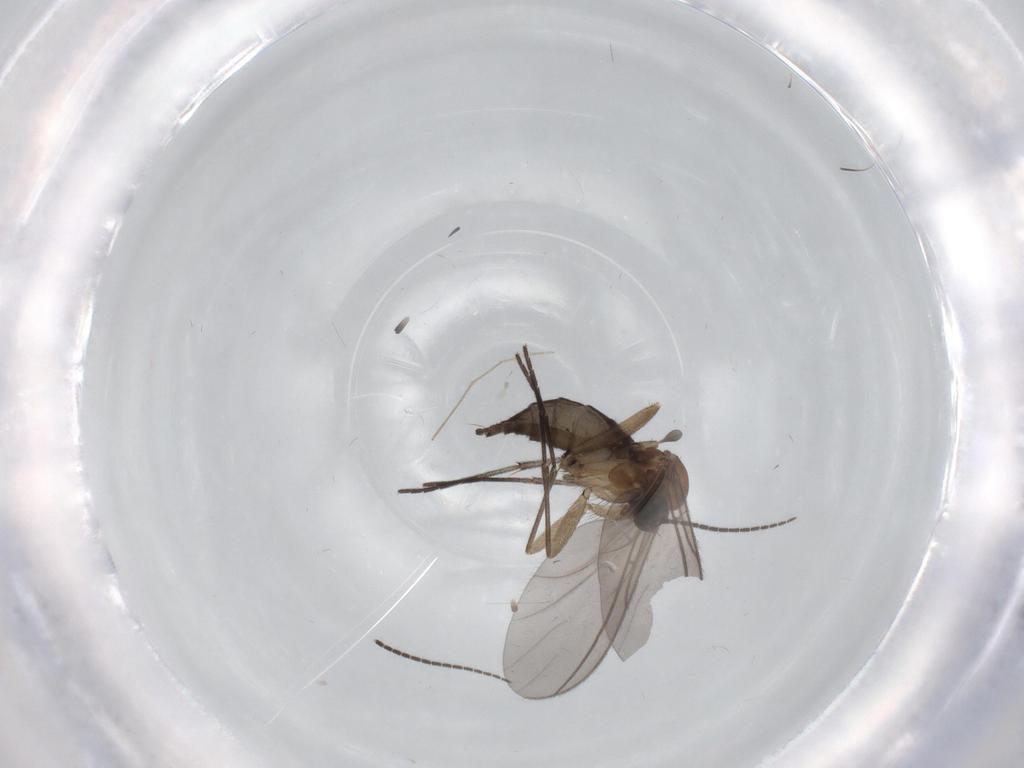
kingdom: Animalia
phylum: Arthropoda
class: Insecta
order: Diptera
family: Sciaridae
